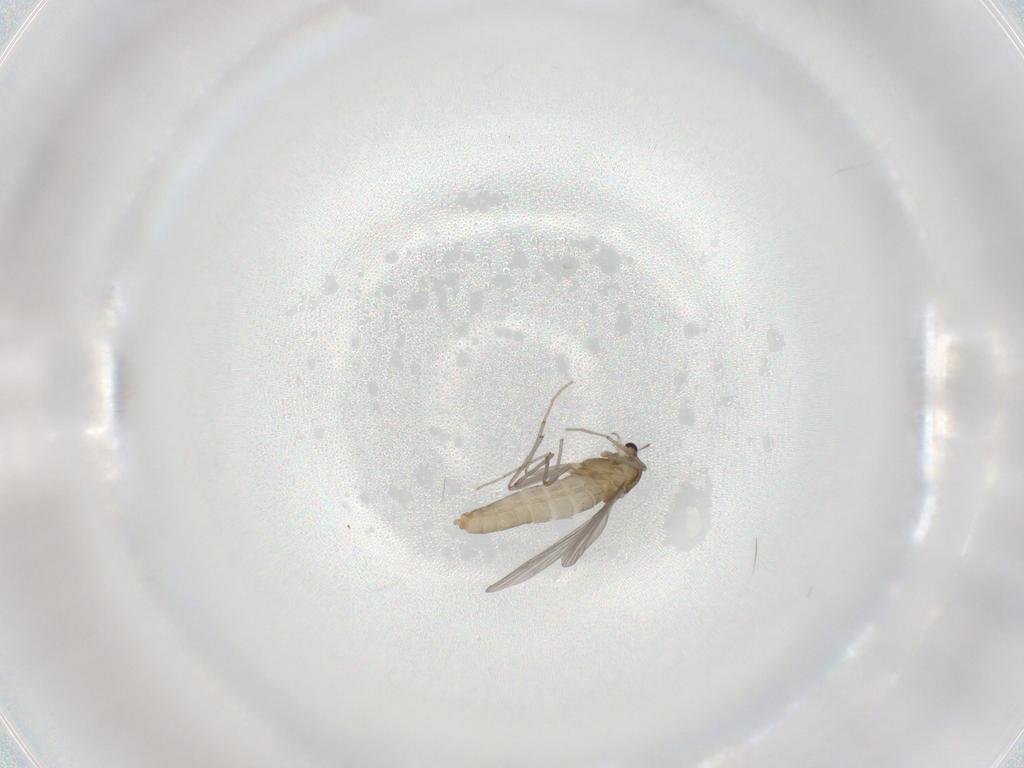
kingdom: Animalia
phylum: Arthropoda
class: Insecta
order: Diptera
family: Chironomidae
